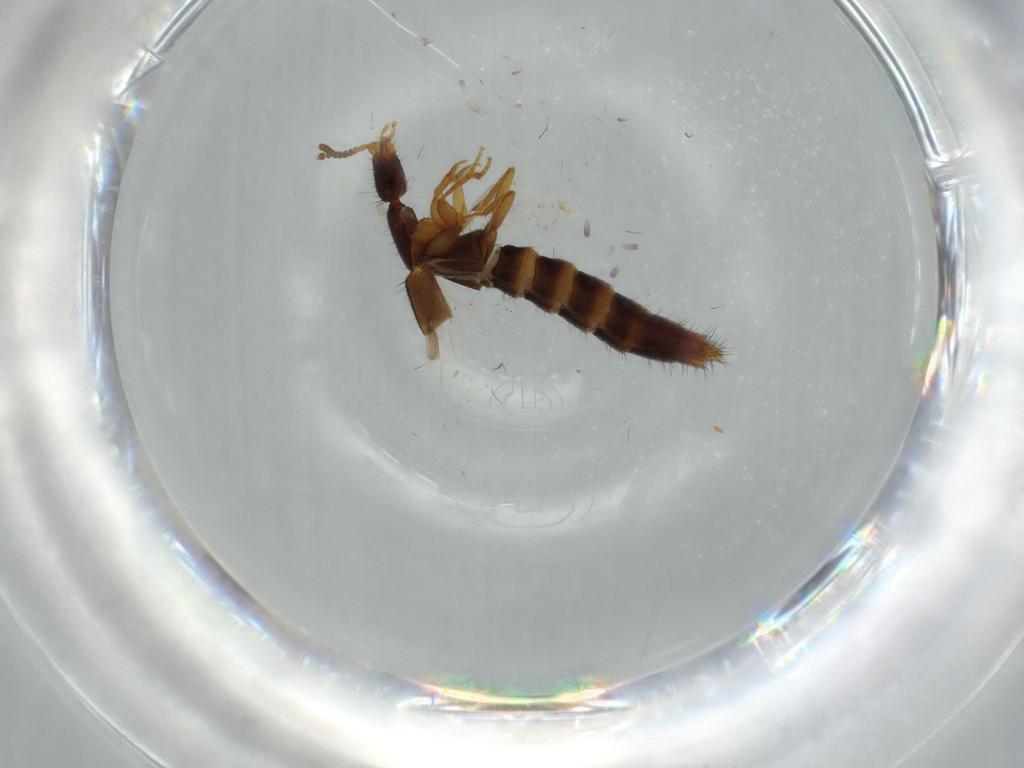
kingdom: Animalia
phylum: Arthropoda
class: Insecta
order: Coleoptera
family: Staphylinidae
